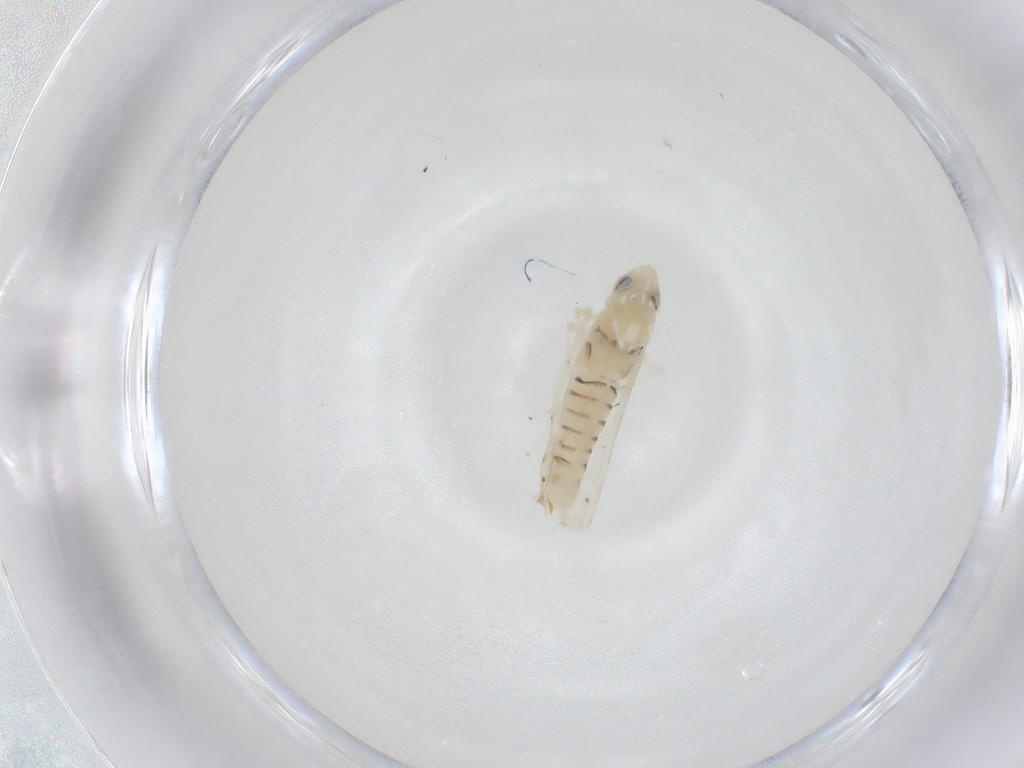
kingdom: Animalia
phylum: Arthropoda
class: Insecta
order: Hemiptera
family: Cicadellidae
